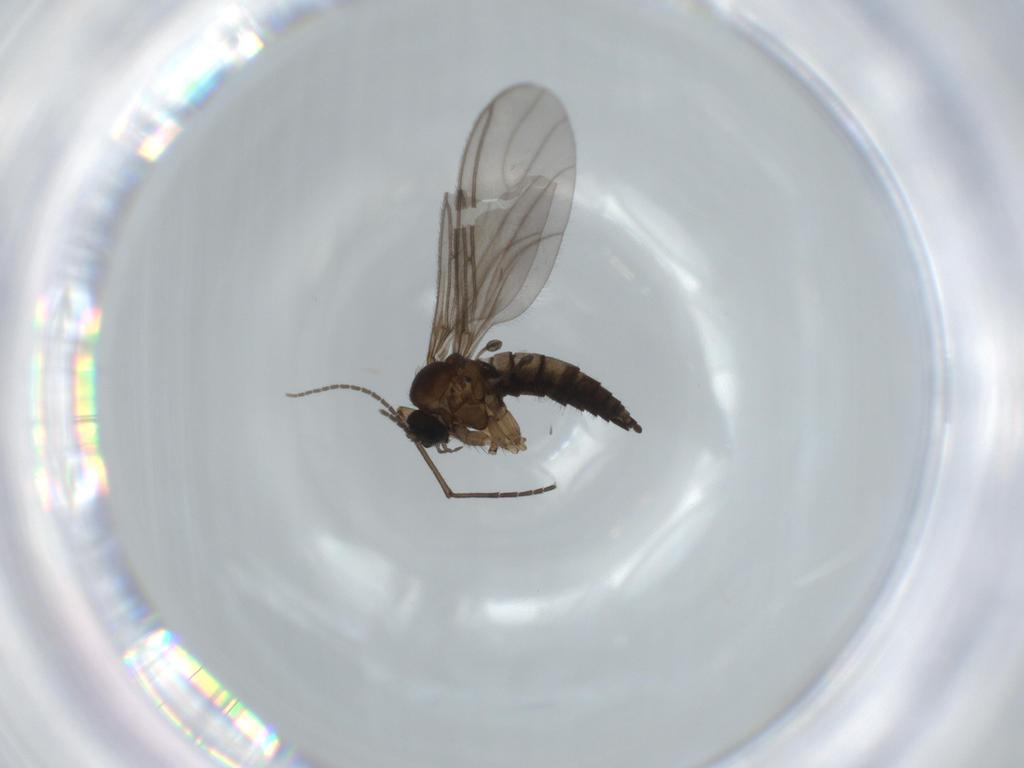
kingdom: Animalia
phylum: Arthropoda
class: Insecta
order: Diptera
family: Sciaridae
